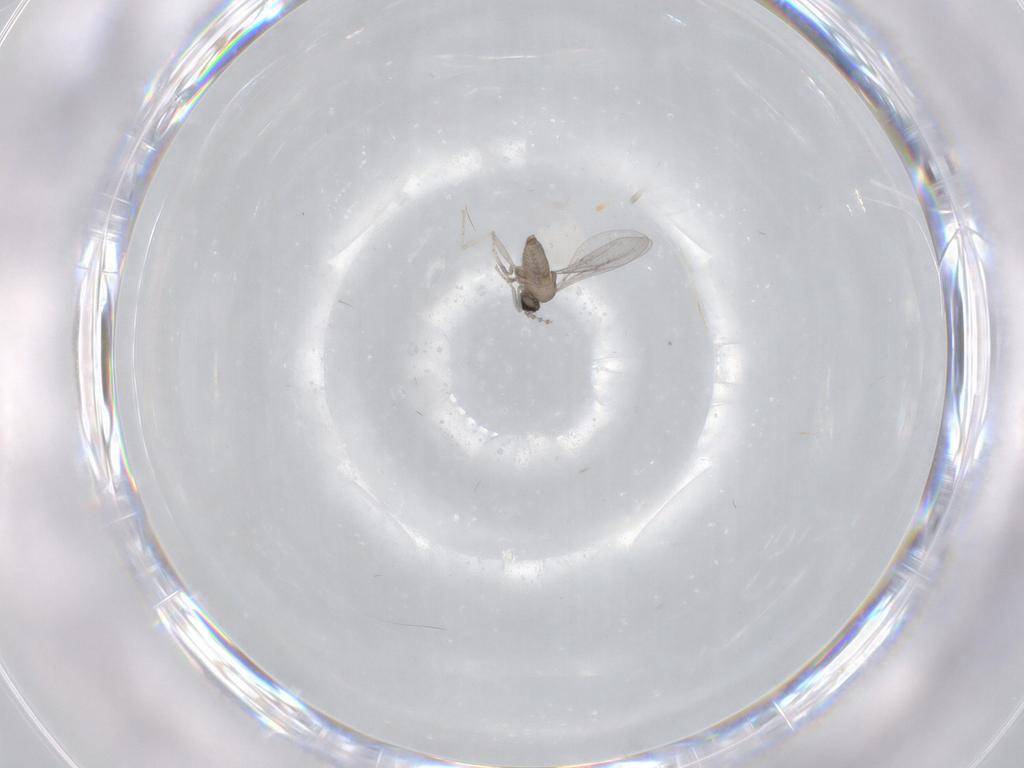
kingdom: Animalia
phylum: Arthropoda
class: Insecta
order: Diptera
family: Cecidomyiidae
